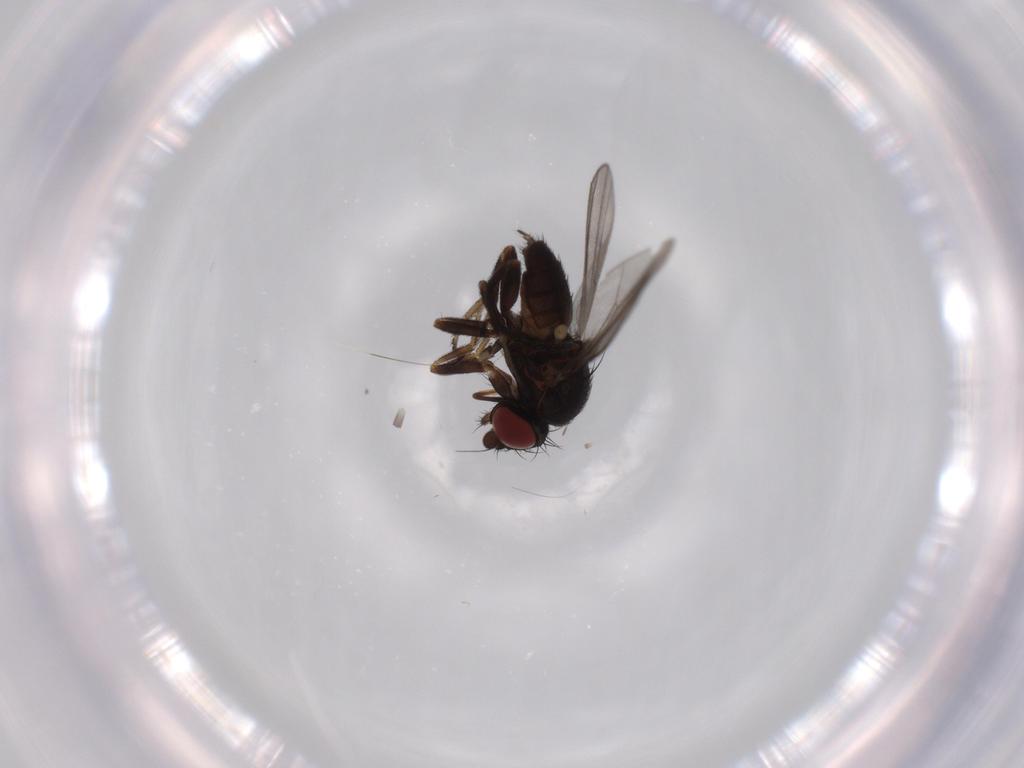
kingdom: Animalia
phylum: Arthropoda
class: Insecta
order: Diptera
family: Milichiidae
